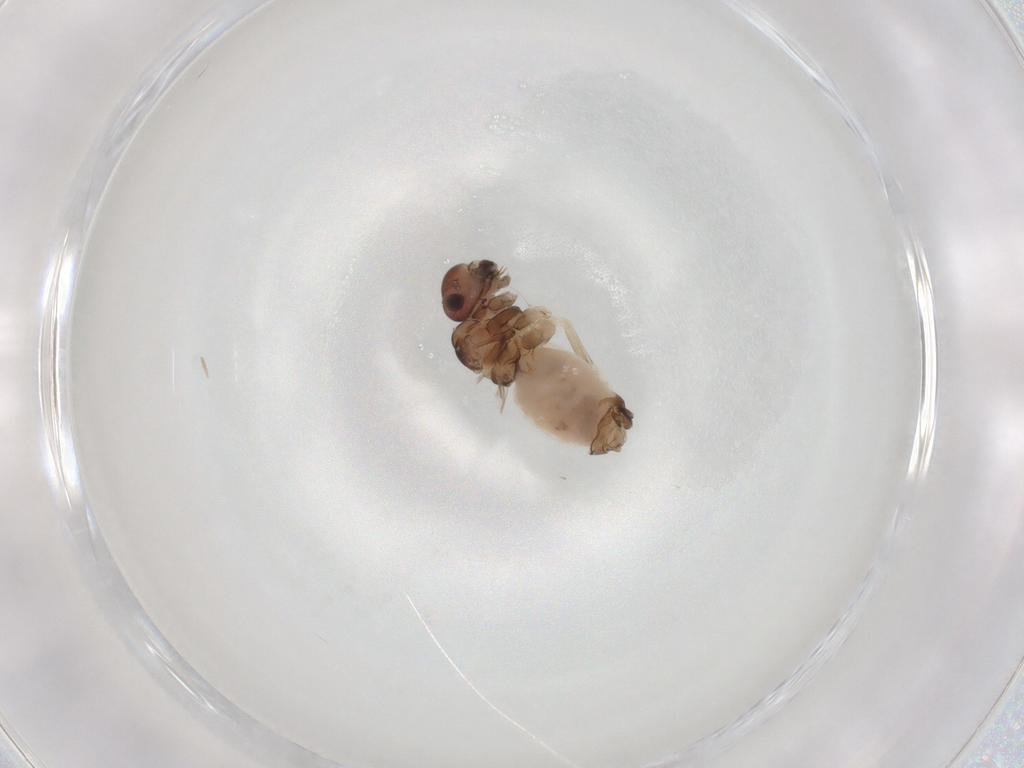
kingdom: Animalia
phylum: Arthropoda
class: Insecta
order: Psocodea
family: Peripsocidae
